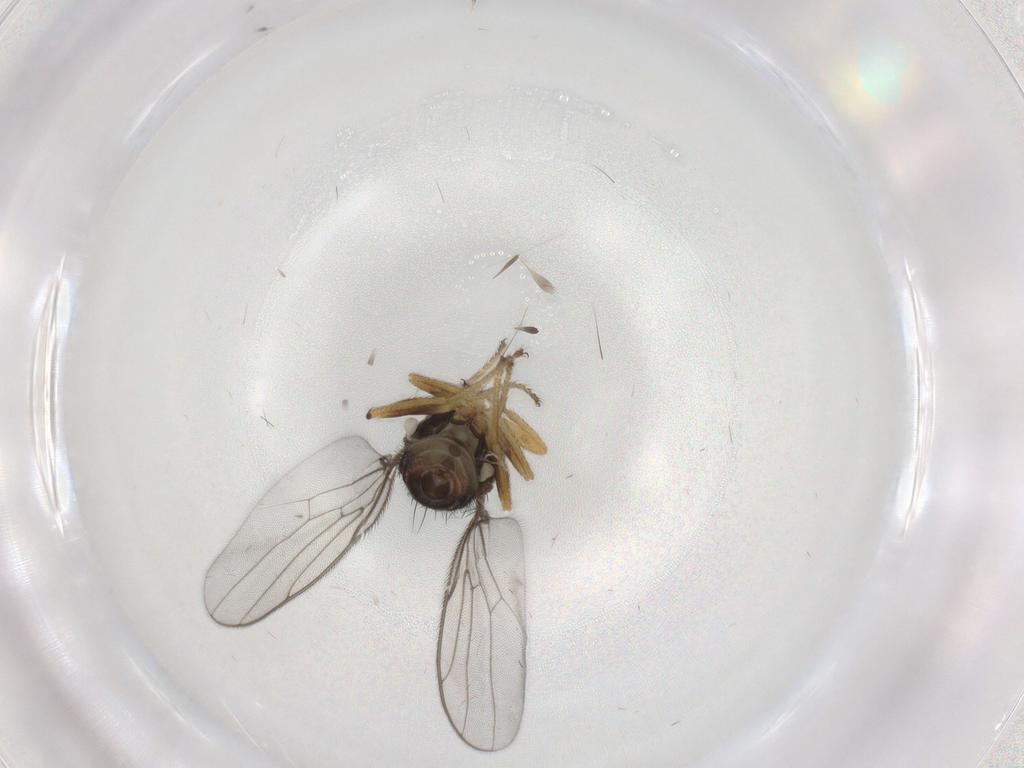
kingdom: Animalia
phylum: Arthropoda
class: Insecta
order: Diptera
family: Chloropidae
